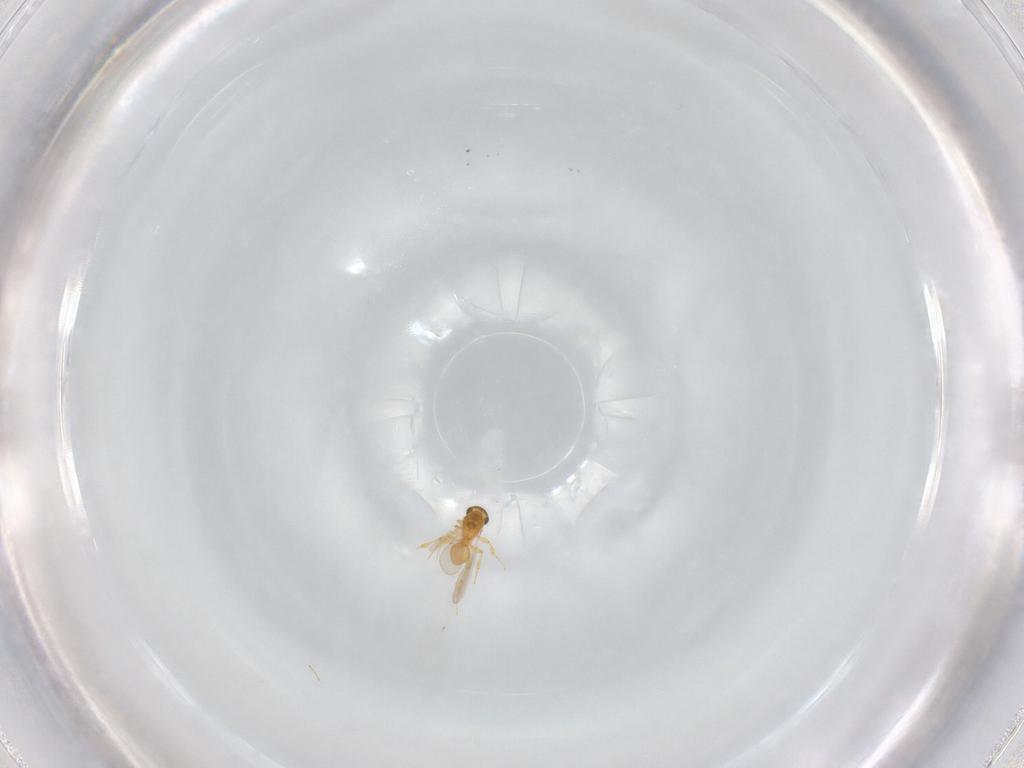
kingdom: Animalia
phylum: Arthropoda
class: Insecta
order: Hymenoptera
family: Platygastridae
